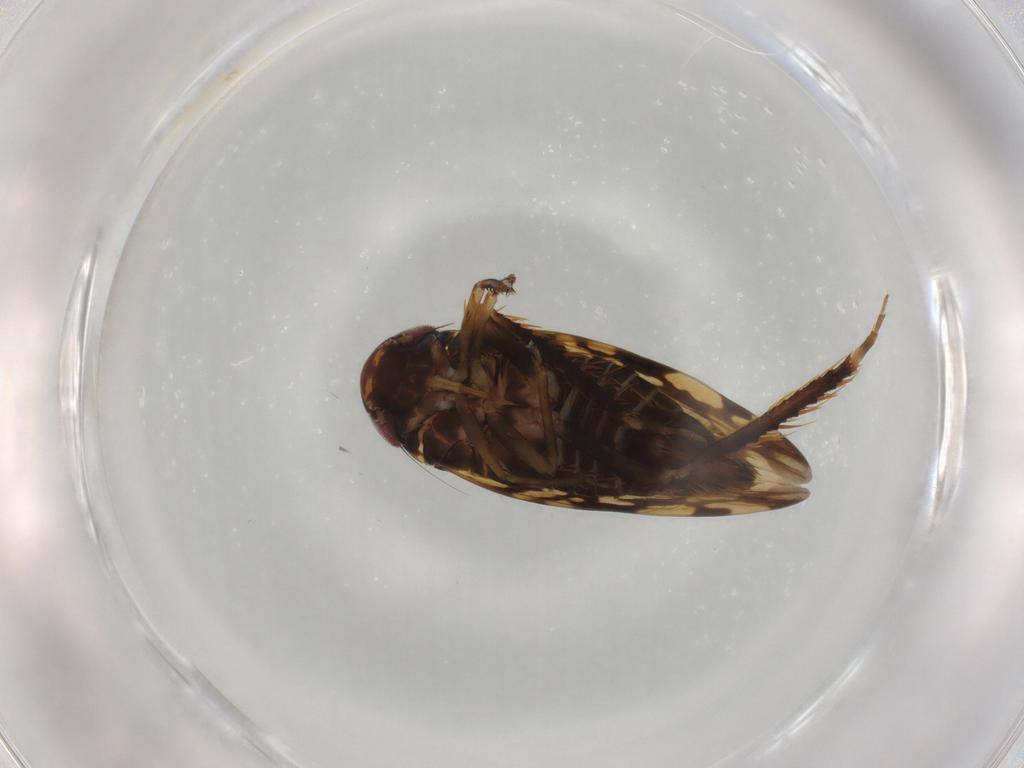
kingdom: Animalia
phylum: Arthropoda
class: Insecta
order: Hemiptera
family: Cicadellidae
